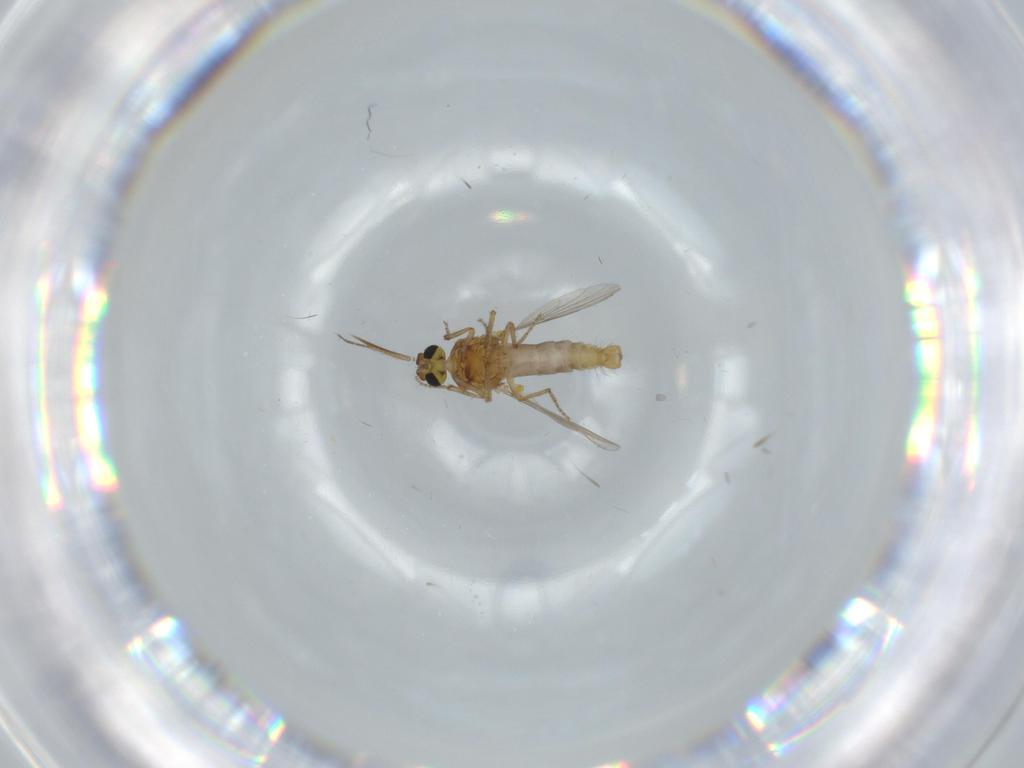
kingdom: Animalia
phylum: Arthropoda
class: Insecta
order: Diptera
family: Ceratopogonidae
